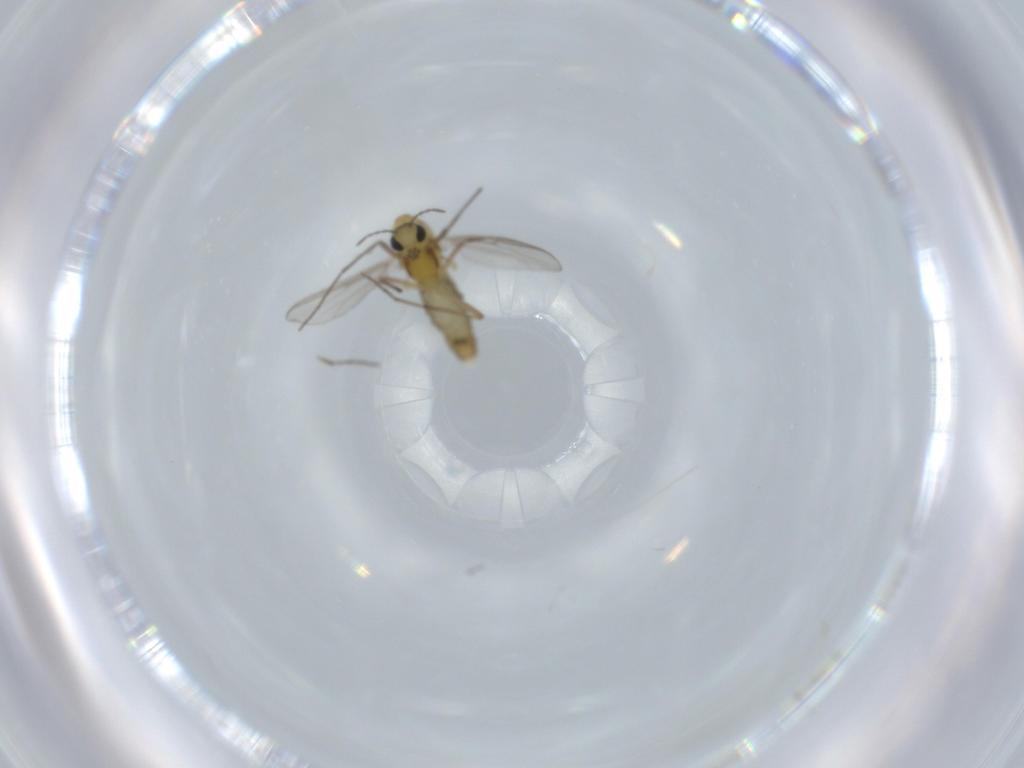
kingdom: Animalia
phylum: Arthropoda
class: Insecta
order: Diptera
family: Chironomidae
